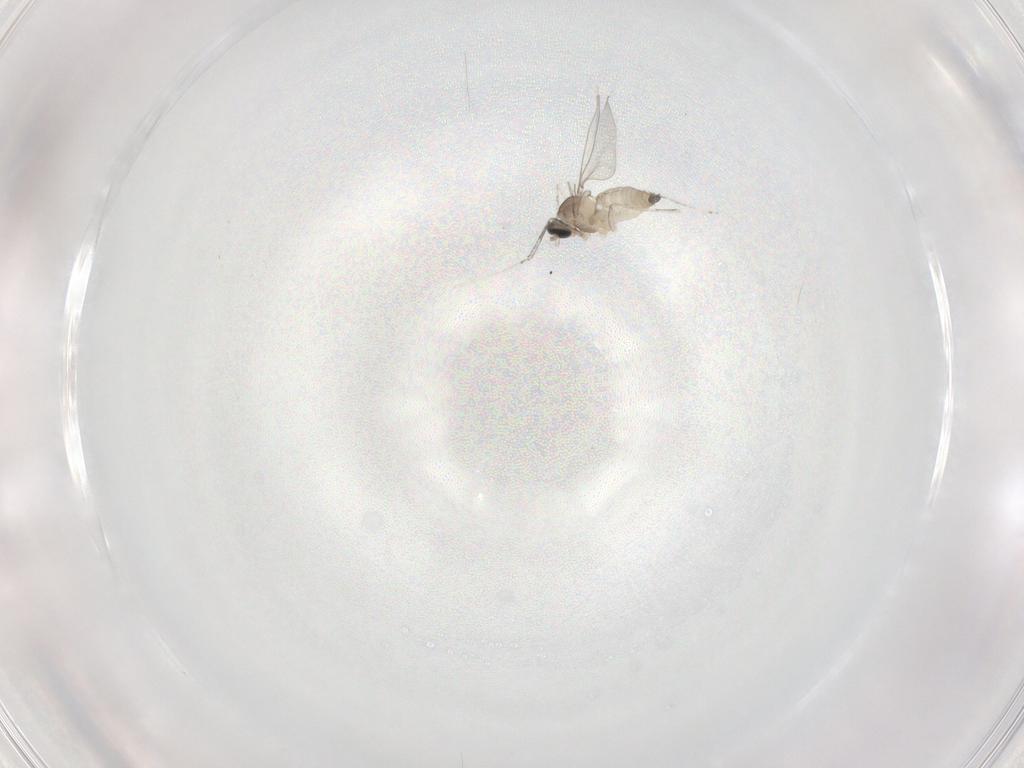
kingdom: Animalia
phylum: Arthropoda
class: Insecta
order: Diptera
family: Cecidomyiidae
